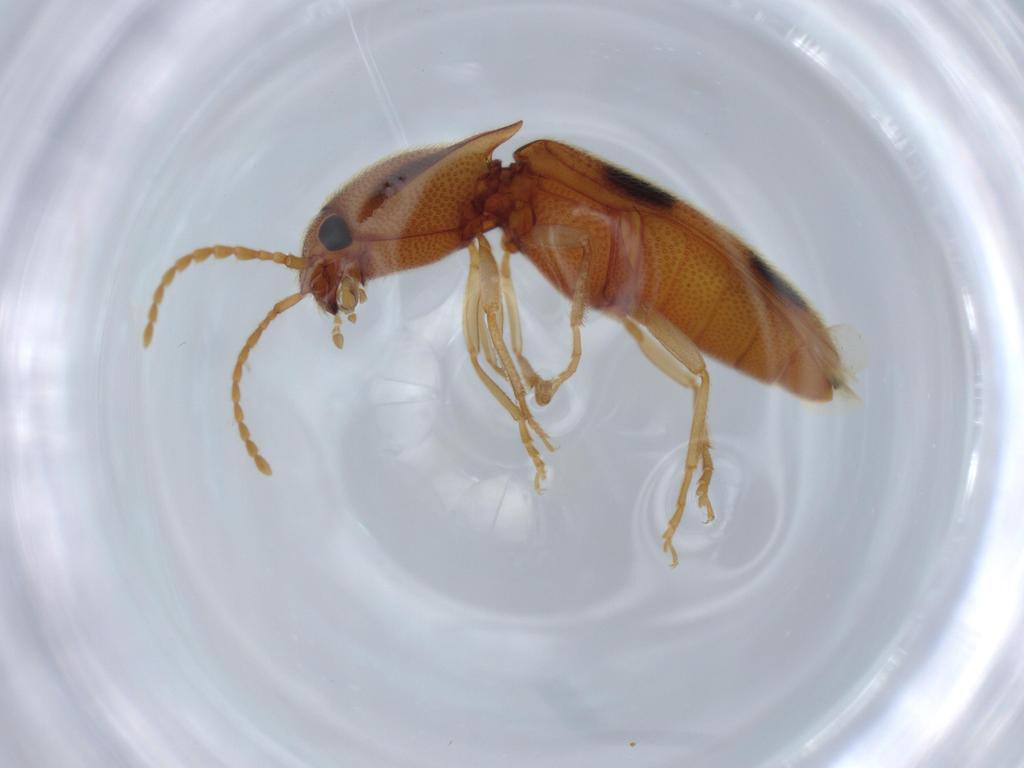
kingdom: Animalia
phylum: Arthropoda
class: Insecta
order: Coleoptera
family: Elateridae
